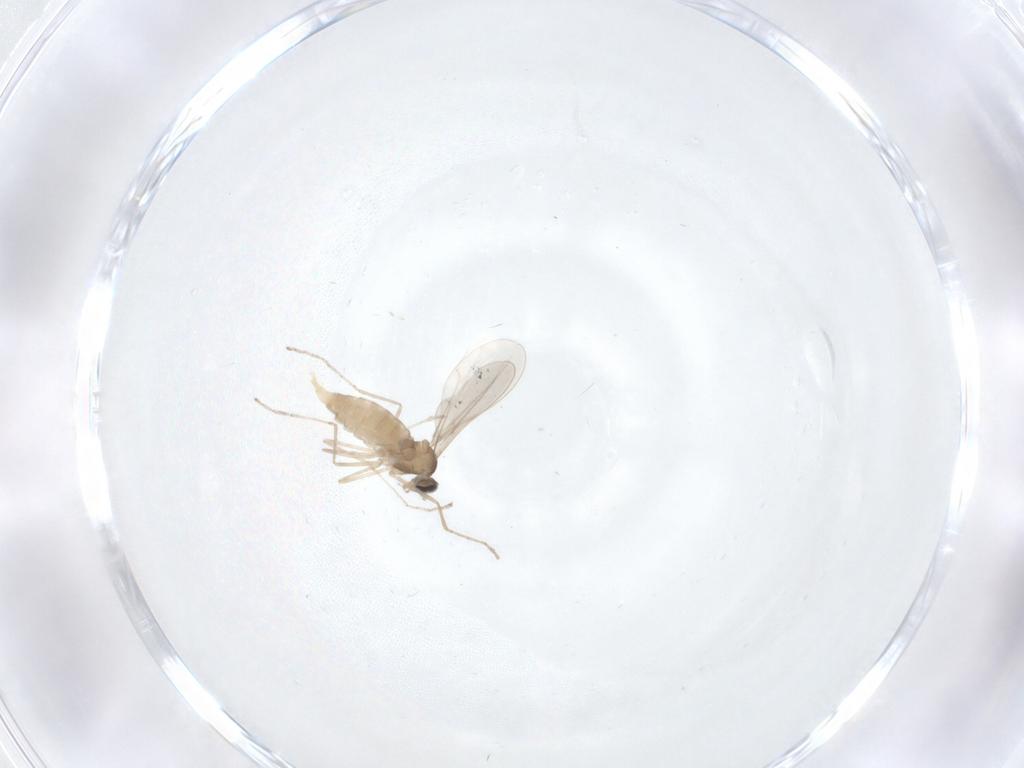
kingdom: Animalia
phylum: Arthropoda
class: Insecta
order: Diptera
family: Cecidomyiidae
